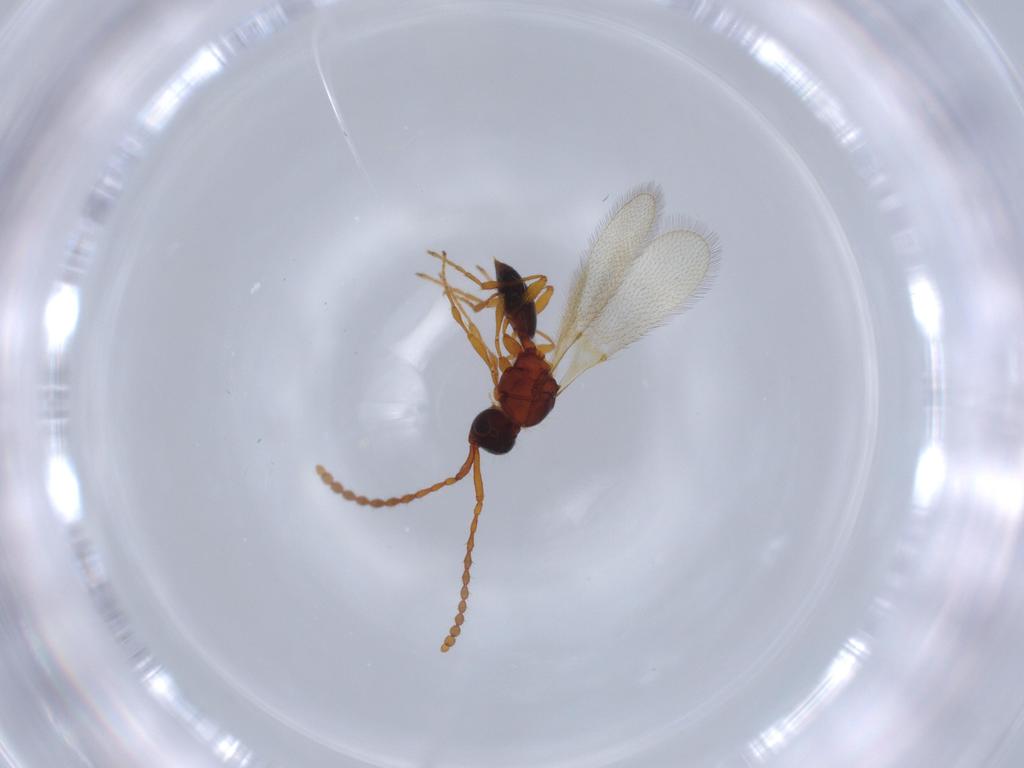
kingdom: Animalia
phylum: Arthropoda
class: Insecta
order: Hymenoptera
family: Diapriidae
